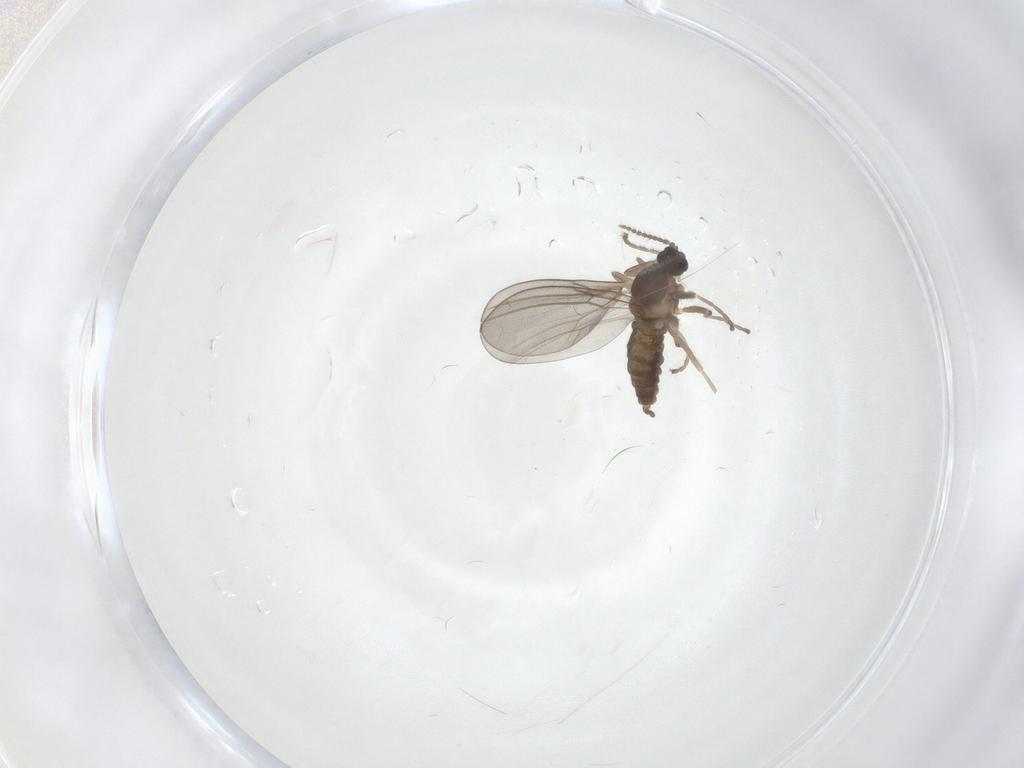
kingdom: Animalia
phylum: Arthropoda
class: Insecta
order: Diptera
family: Cecidomyiidae
